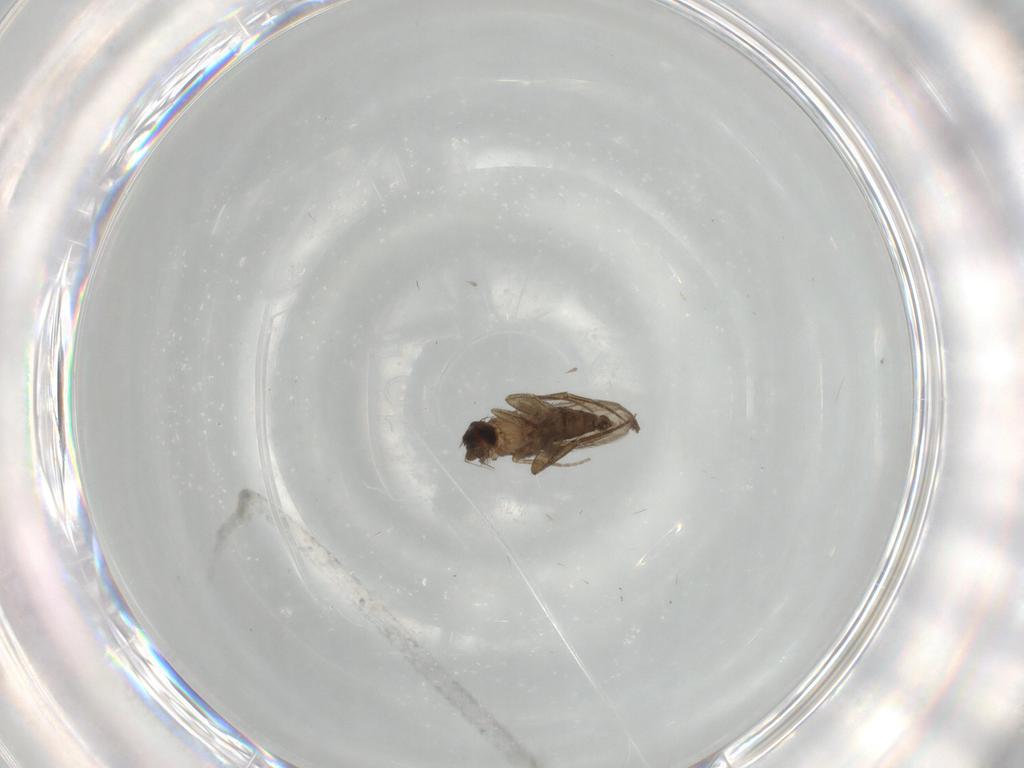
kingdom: Animalia
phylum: Arthropoda
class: Insecta
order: Diptera
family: Phoridae
